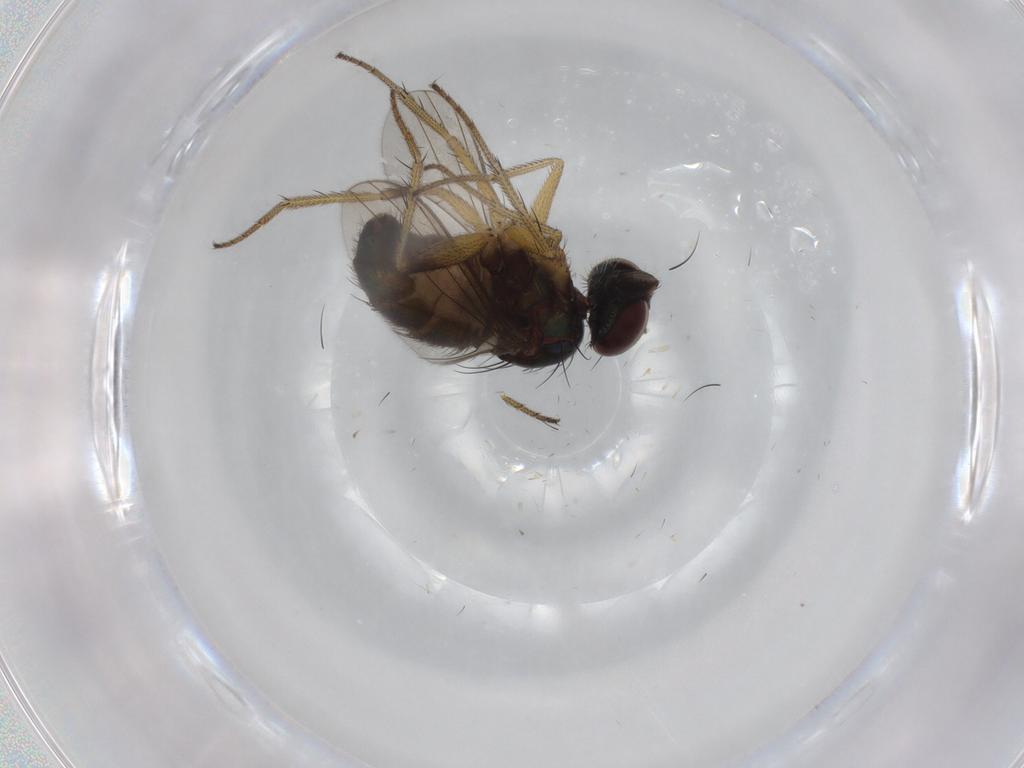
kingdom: Animalia
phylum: Arthropoda
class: Insecta
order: Diptera
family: Dolichopodidae
